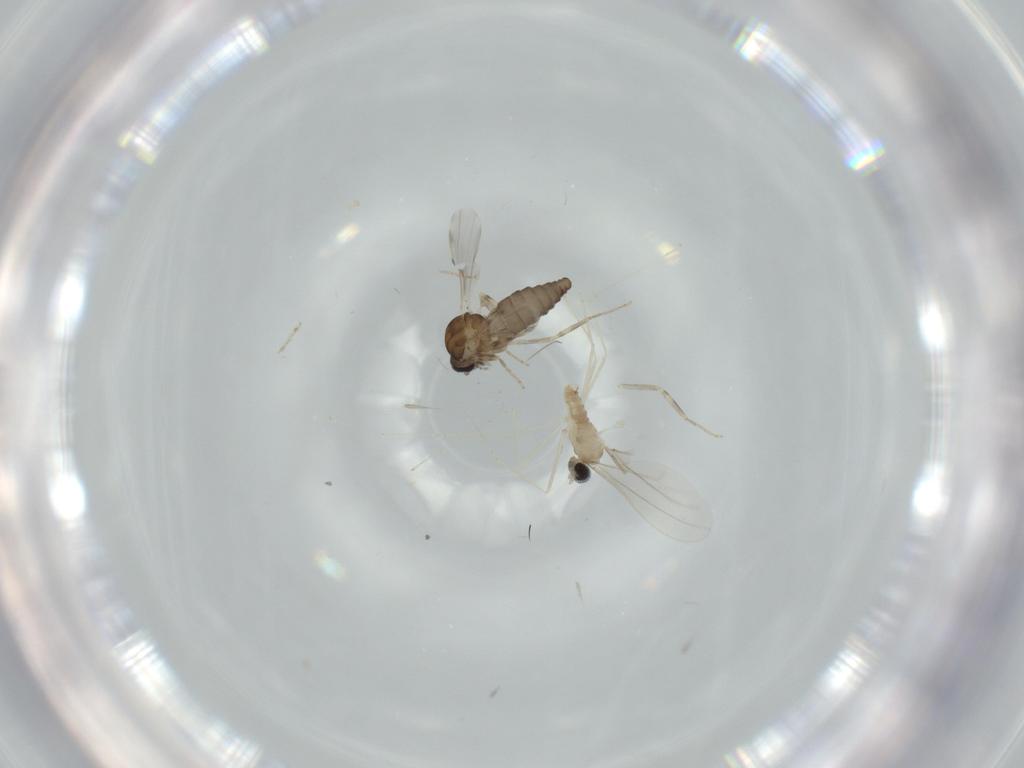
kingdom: Animalia
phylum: Arthropoda
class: Insecta
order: Diptera
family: Ceratopogonidae
